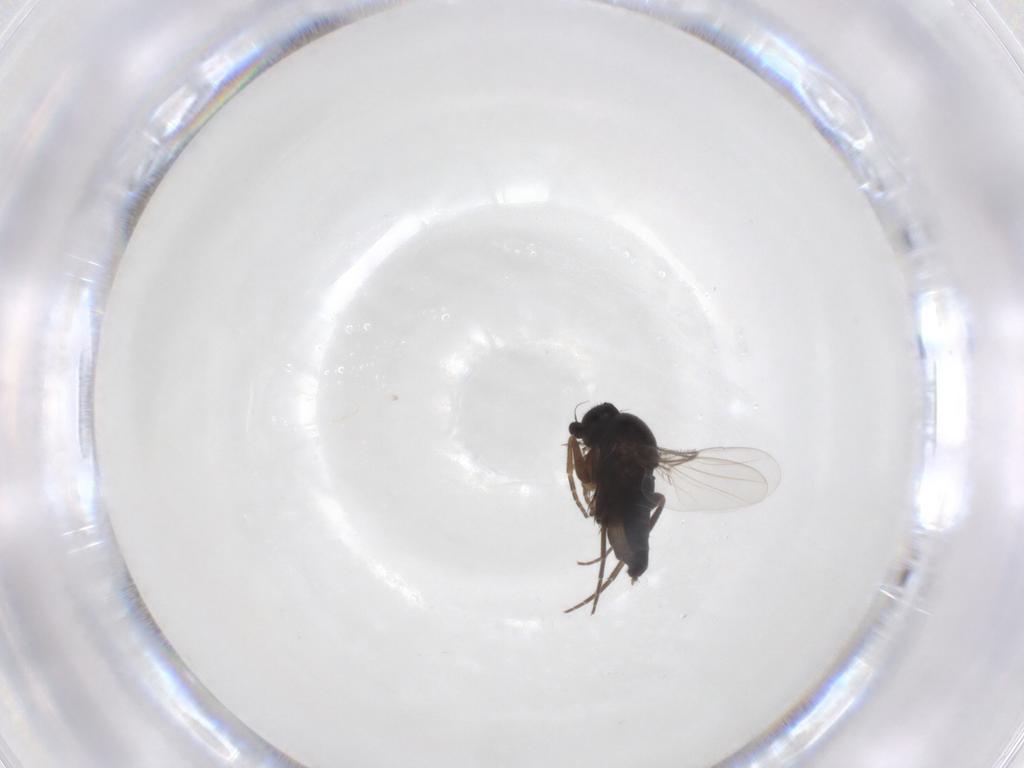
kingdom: Animalia
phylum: Arthropoda
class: Insecta
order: Diptera
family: Phoridae
